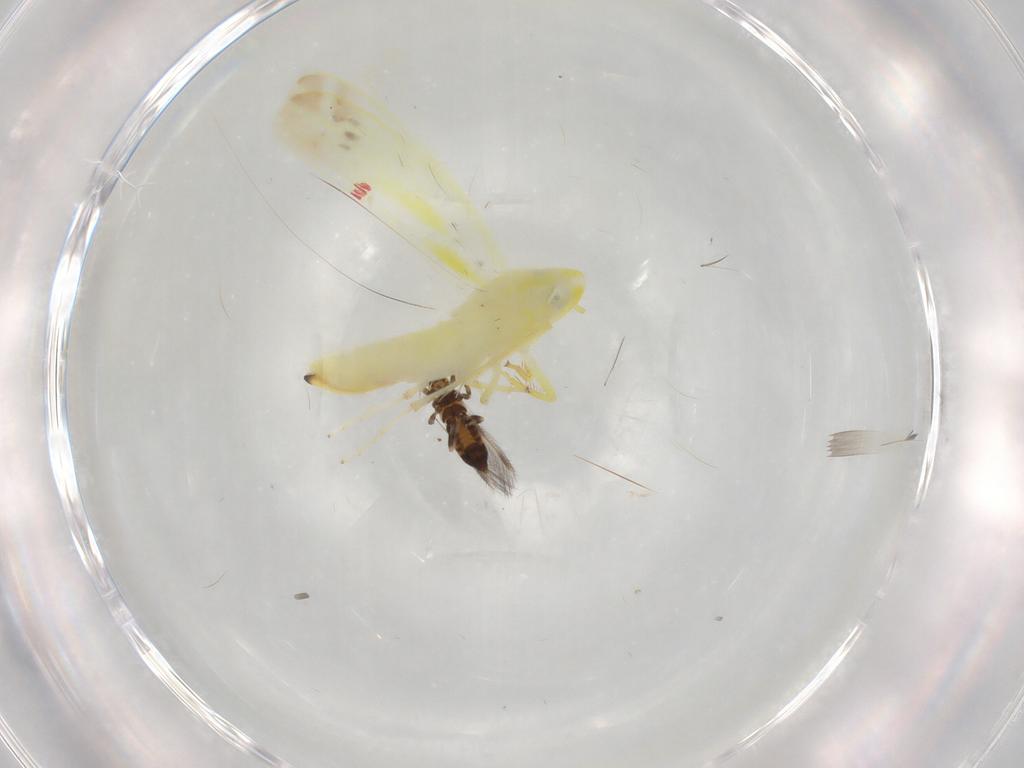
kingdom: Animalia
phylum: Arthropoda
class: Insecta
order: Hemiptera
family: Cicadellidae
